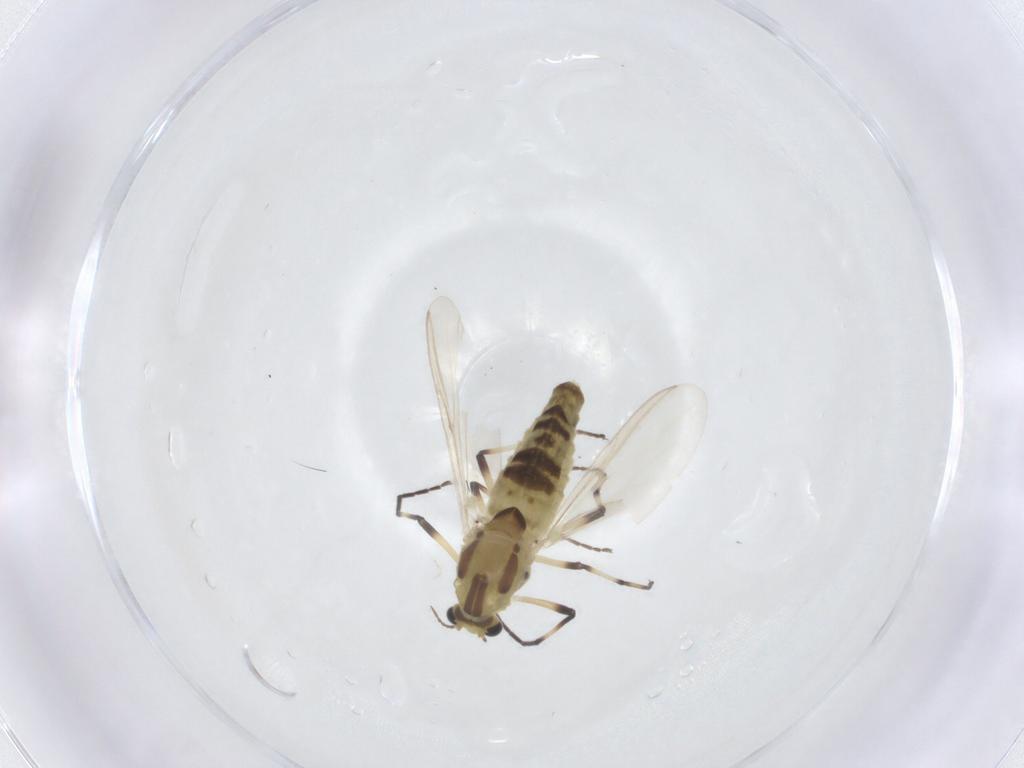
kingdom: Animalia
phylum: Arthropoda
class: Insecta
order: Diptera
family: Chironomidae
